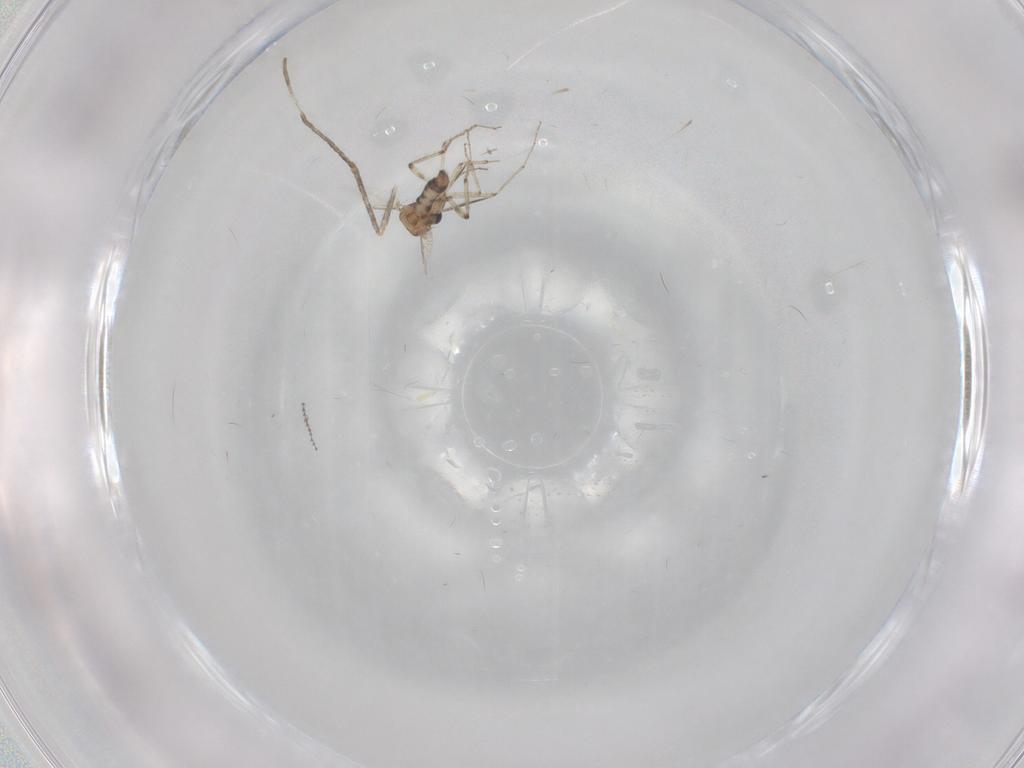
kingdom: Animalia
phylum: Arthropoda
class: Insecta
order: Diptera
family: Ceratopogonidae
